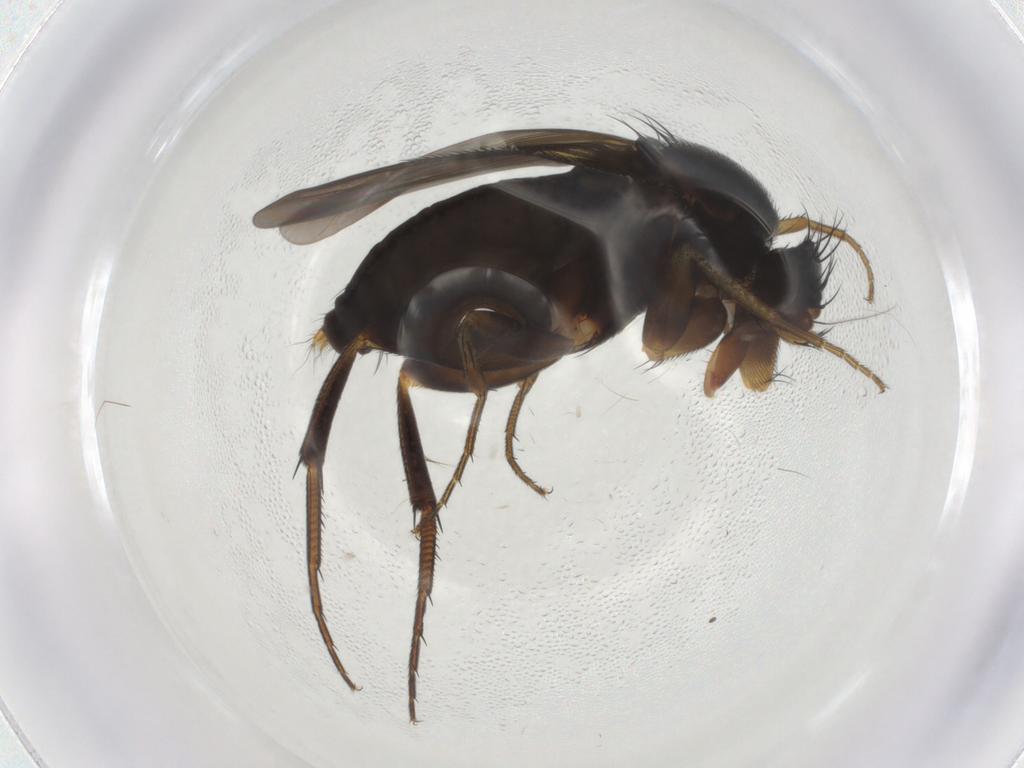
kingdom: Animalia
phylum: Arthropoda
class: Insecta
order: Diptera
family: Phoridae
